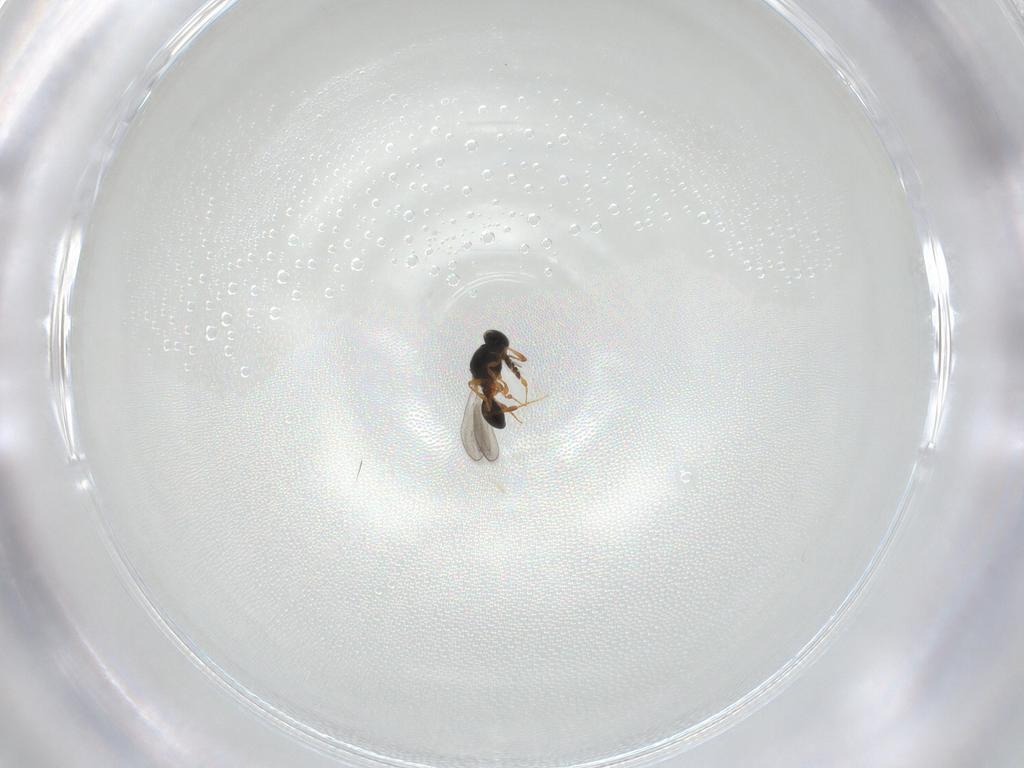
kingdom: Animalia
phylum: Arthropoda
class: Insecta
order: Hymenoptera
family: Platygastridae
